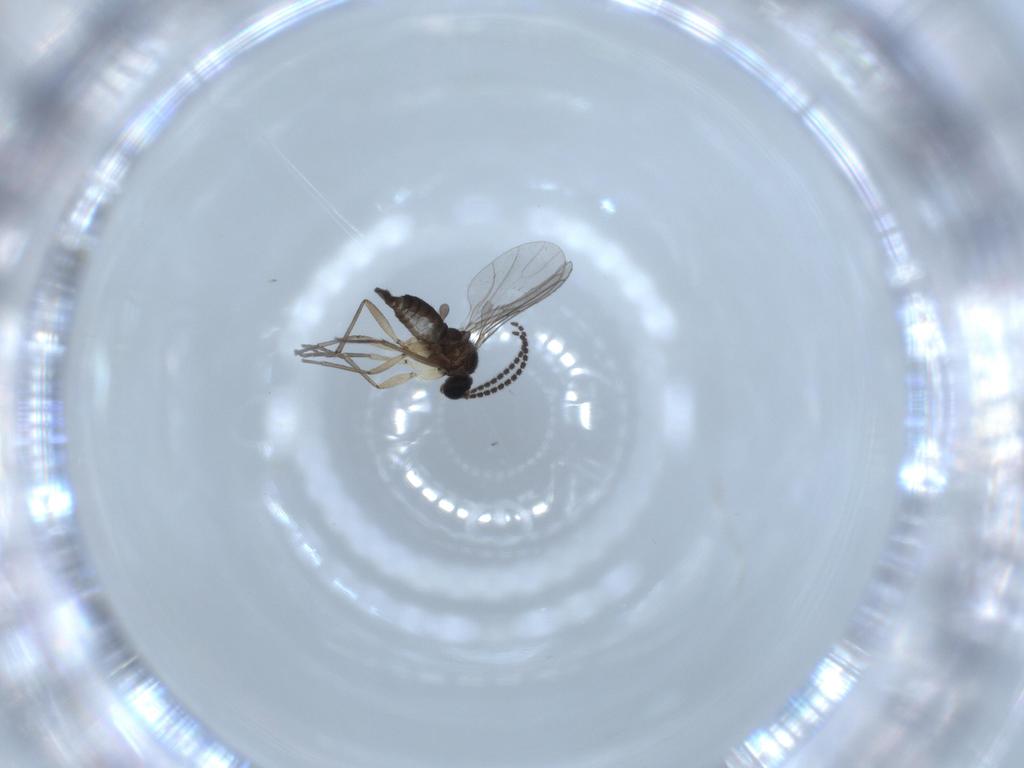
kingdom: Animalia
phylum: Arthropoda
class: Insecta
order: Diptera
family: Sciaridae
